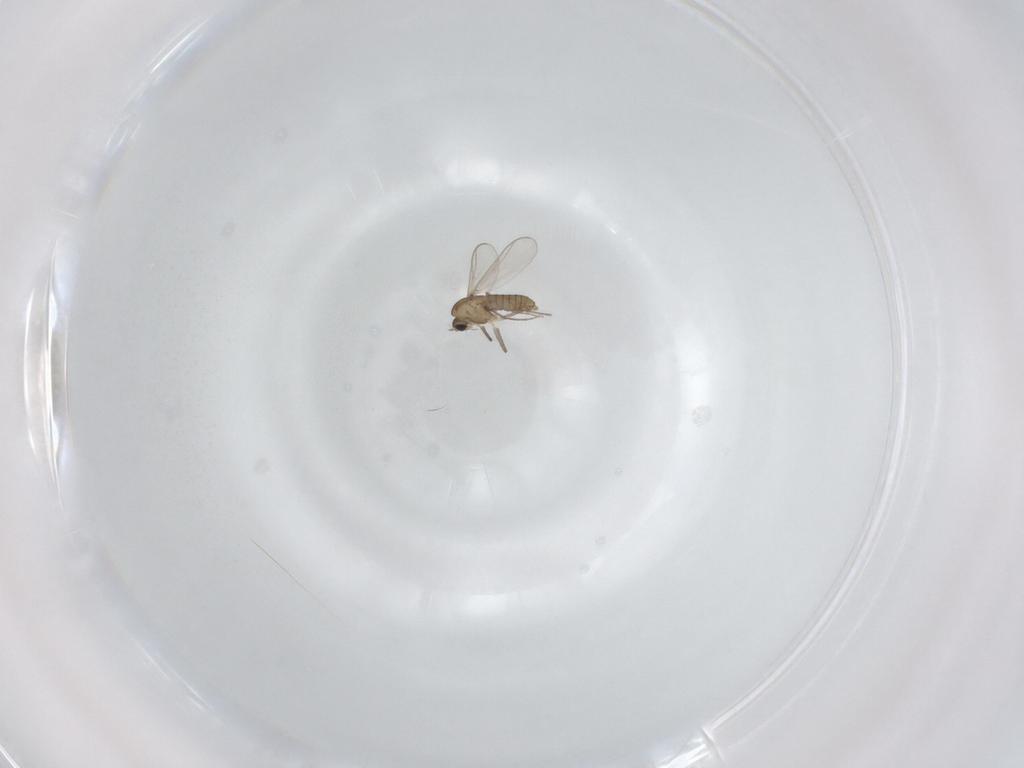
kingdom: Animalia
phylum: Arthropoda
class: Insecta
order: Diptera
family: Chironomidae
